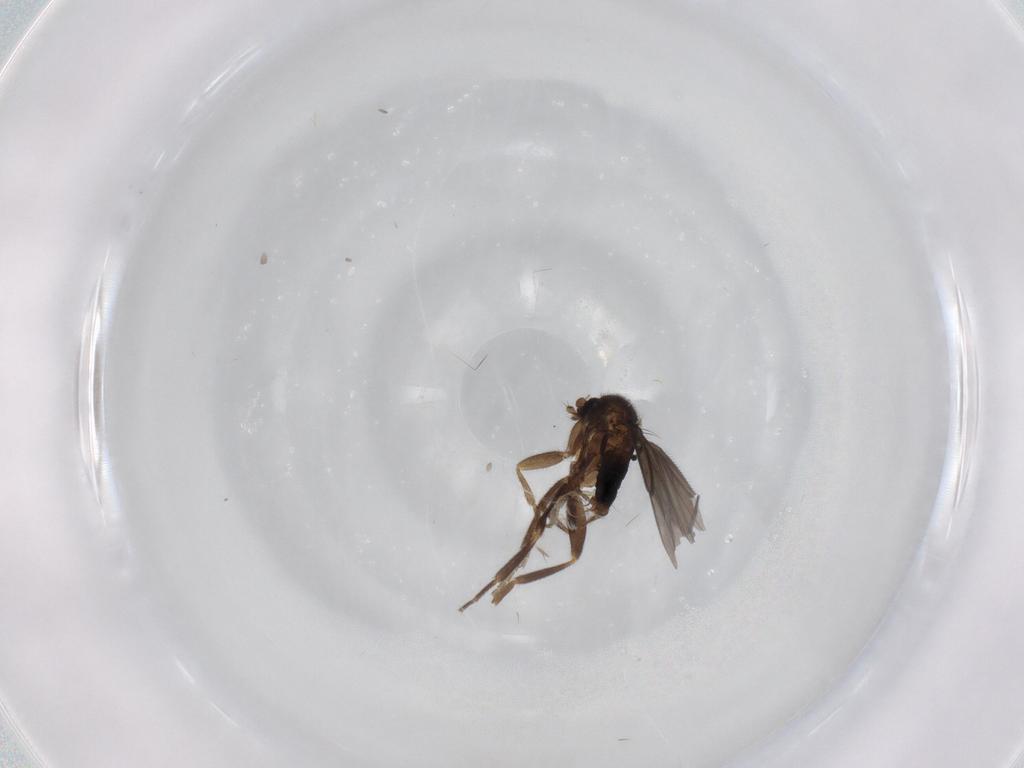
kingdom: Animalia
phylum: Arthropoda
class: Insecta
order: Diptera
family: Phoridae
